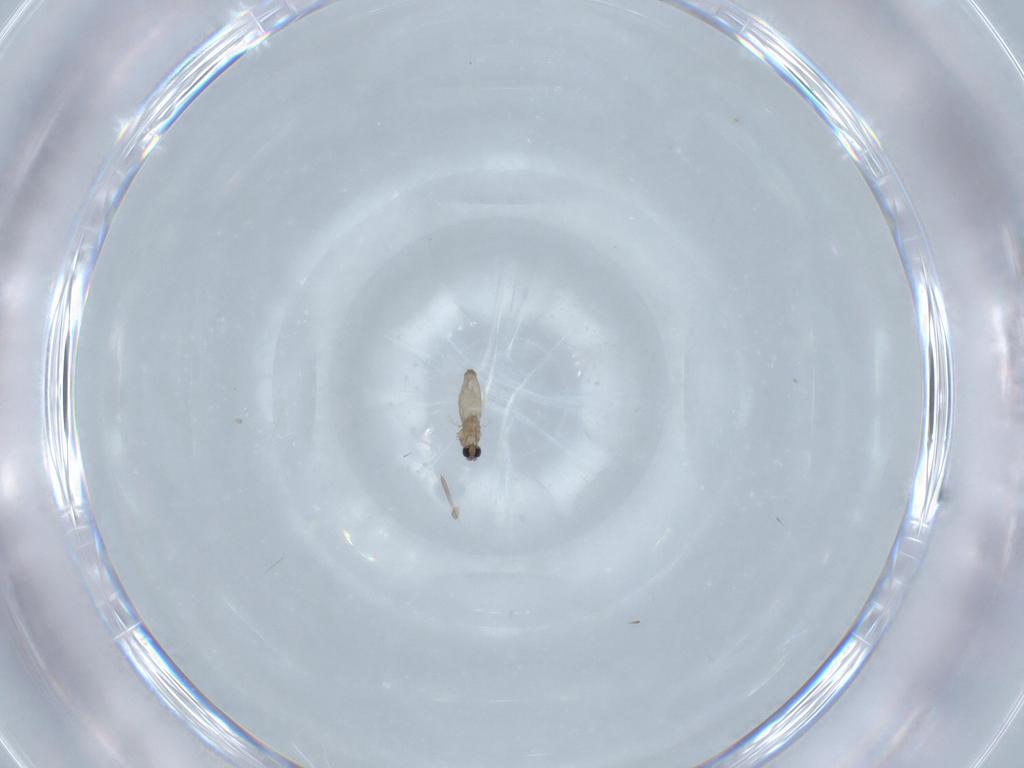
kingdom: Animalia
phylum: Arthropoda
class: Insecta
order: Diptera
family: Cecidomyiidae
